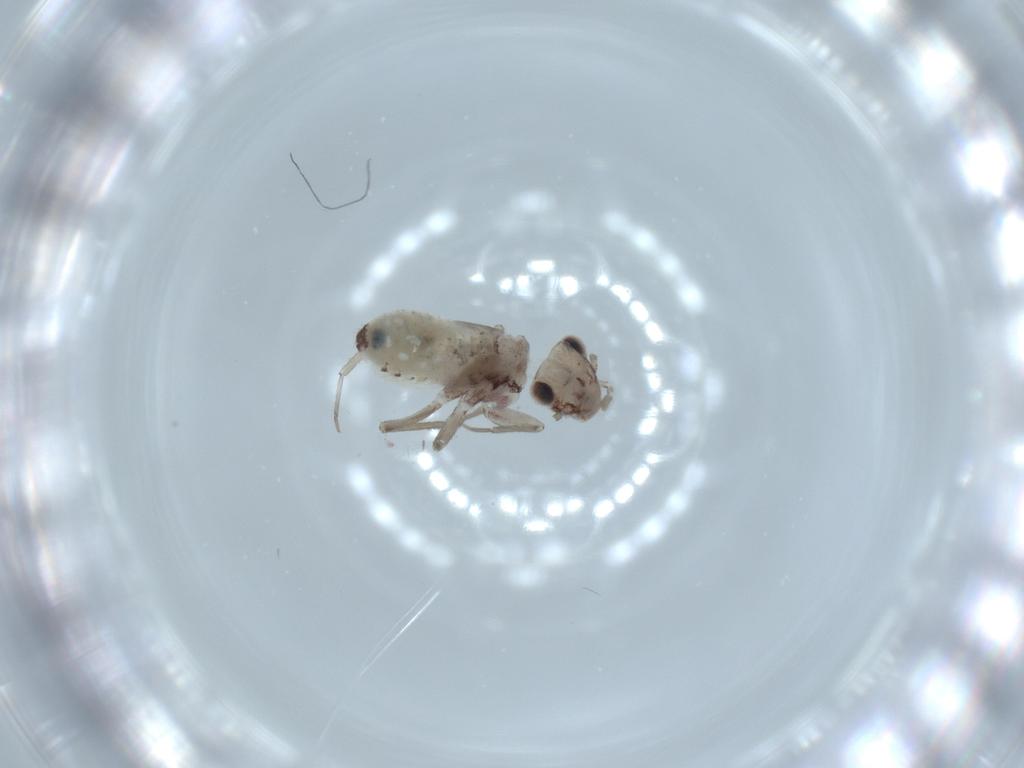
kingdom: Animalia
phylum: Arthropoda
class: Insecta
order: Psocodea
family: Lepidopsocidae
